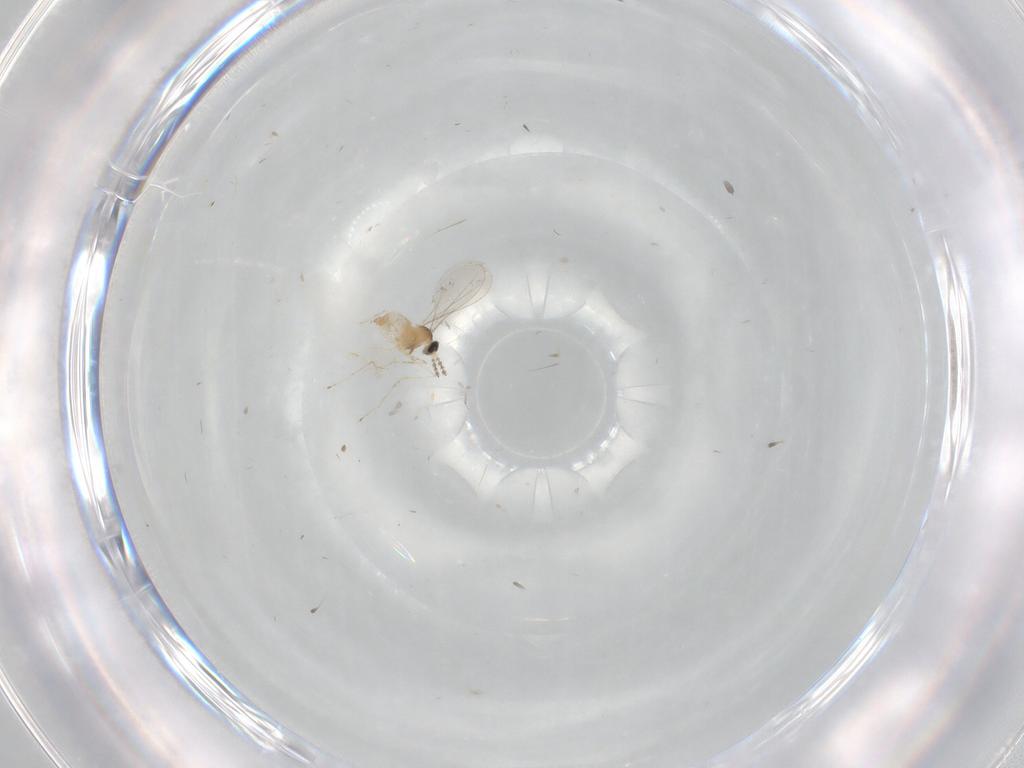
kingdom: Animalia
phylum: Arthropoda
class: Insecta
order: Diptera
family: Cecidomyiidae
